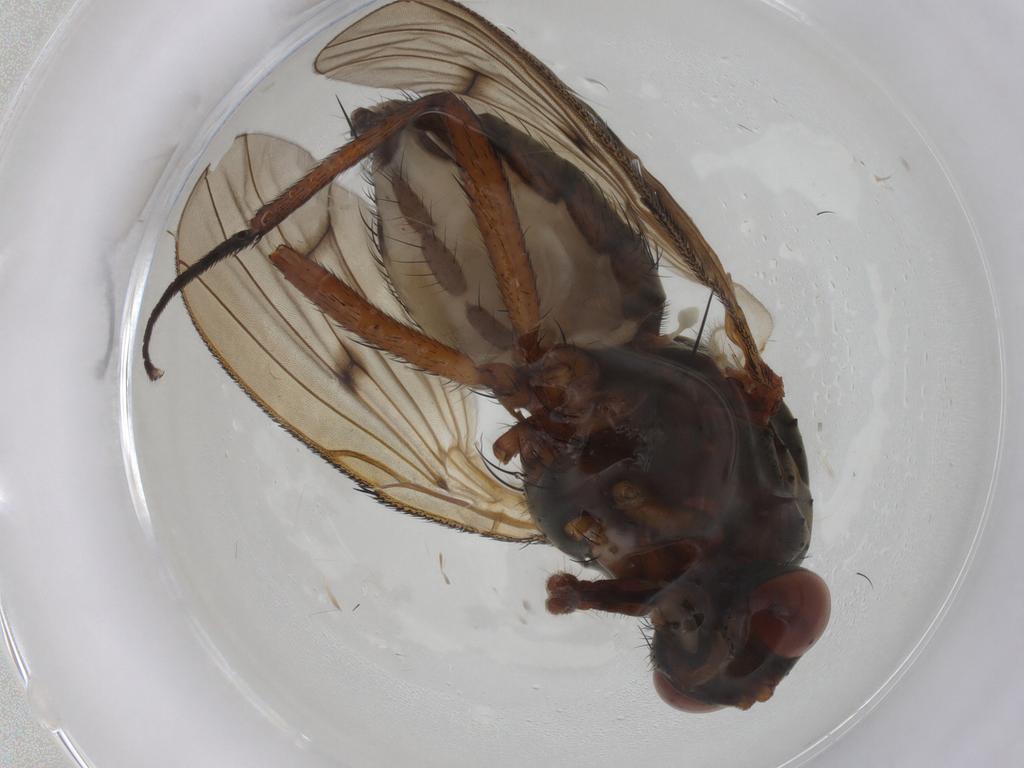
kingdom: Animalia
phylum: Arthropoda
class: Insecta
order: Diptera
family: Anthomyiidae
